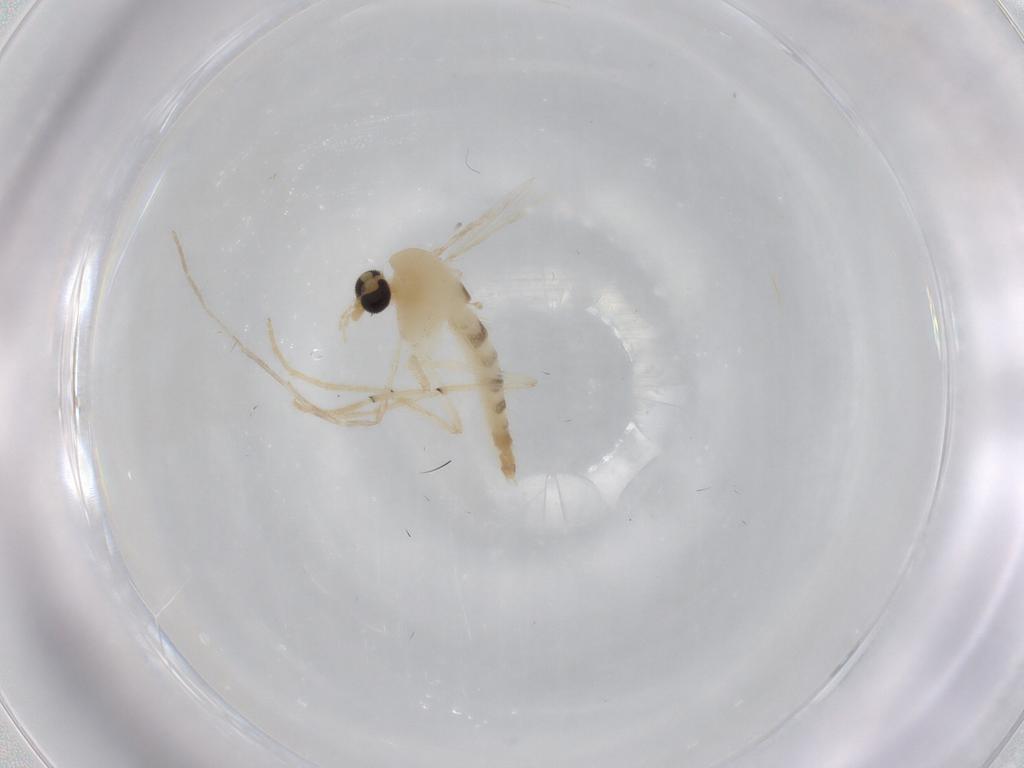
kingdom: Animalia
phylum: Arthropoda
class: Insecta
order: Diptera
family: Chironomidae
